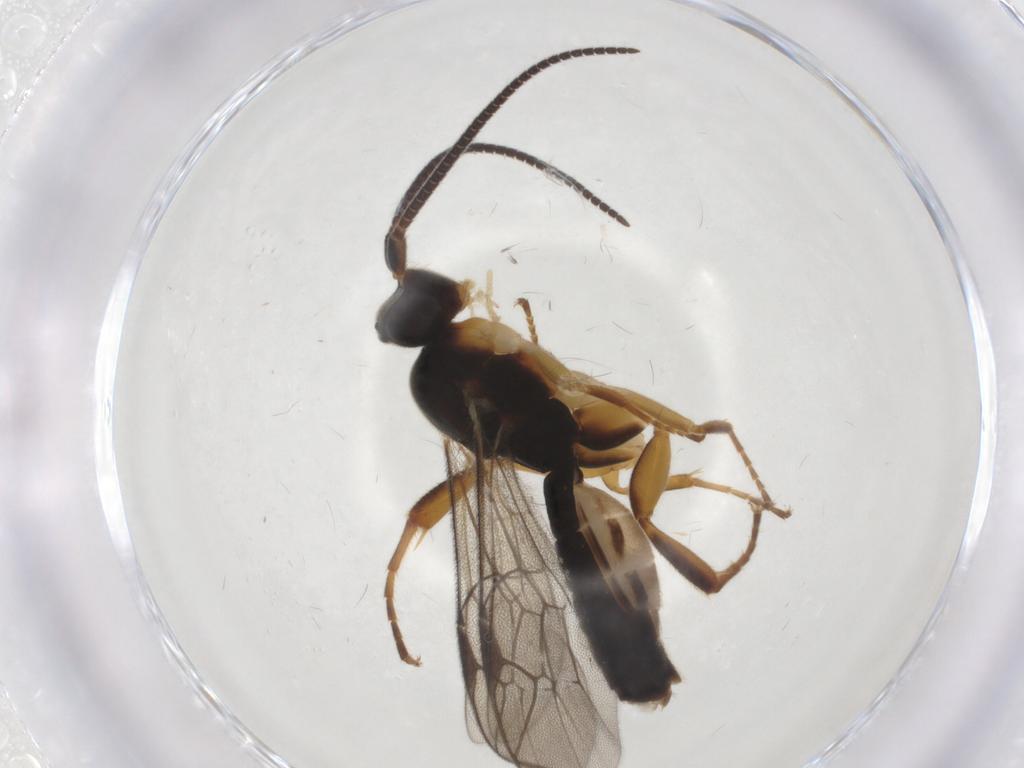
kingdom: Animalia
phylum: Arthropoda
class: Insecta
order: Hymenoptera
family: Ichneumonidae
